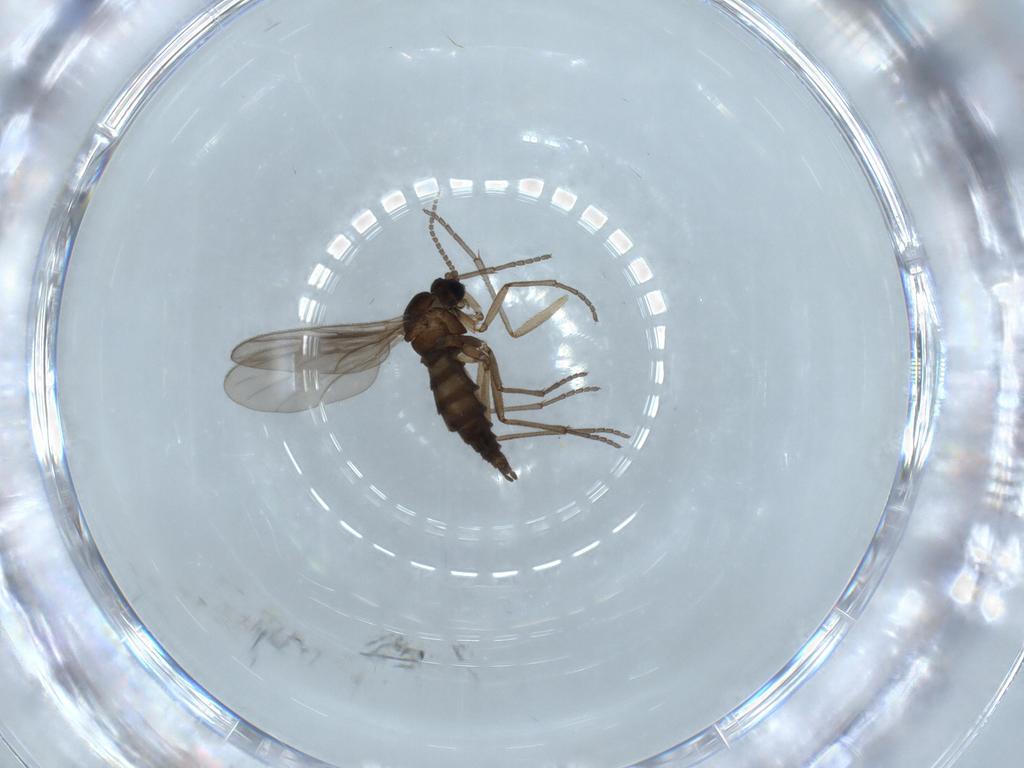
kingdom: Animalia
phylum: Arthropoda
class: Insecta
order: Diptera
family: Sciaridae
